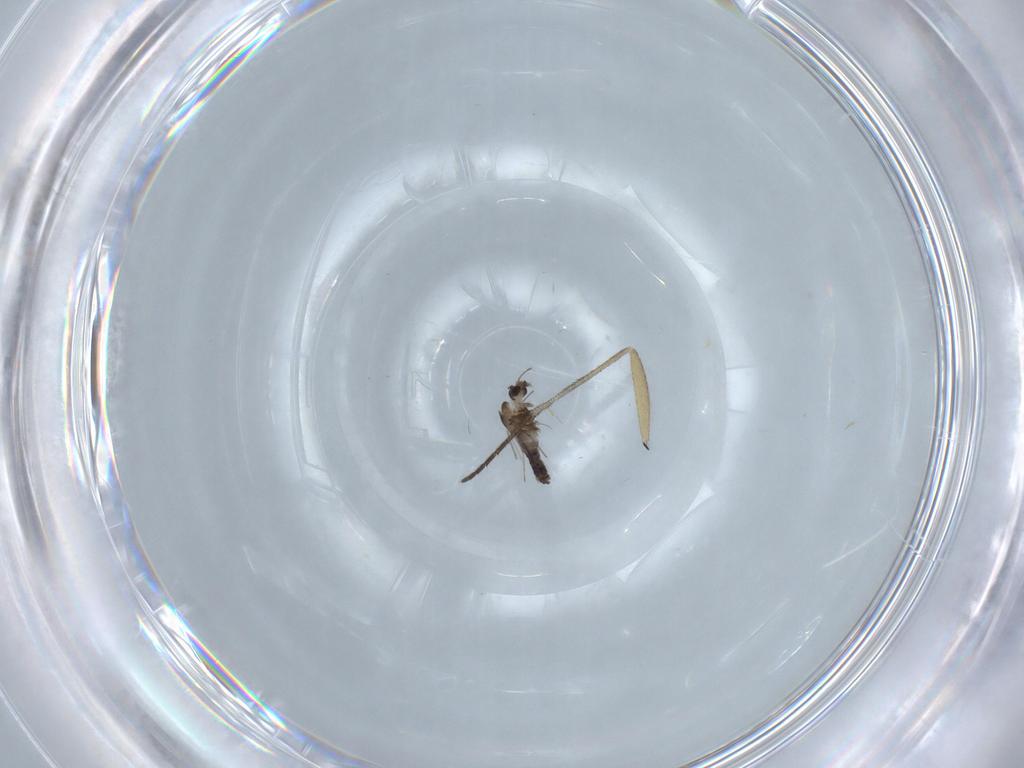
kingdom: Animalia
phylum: Arthropoda
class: Insecta
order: Diptera
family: Chironomidae
